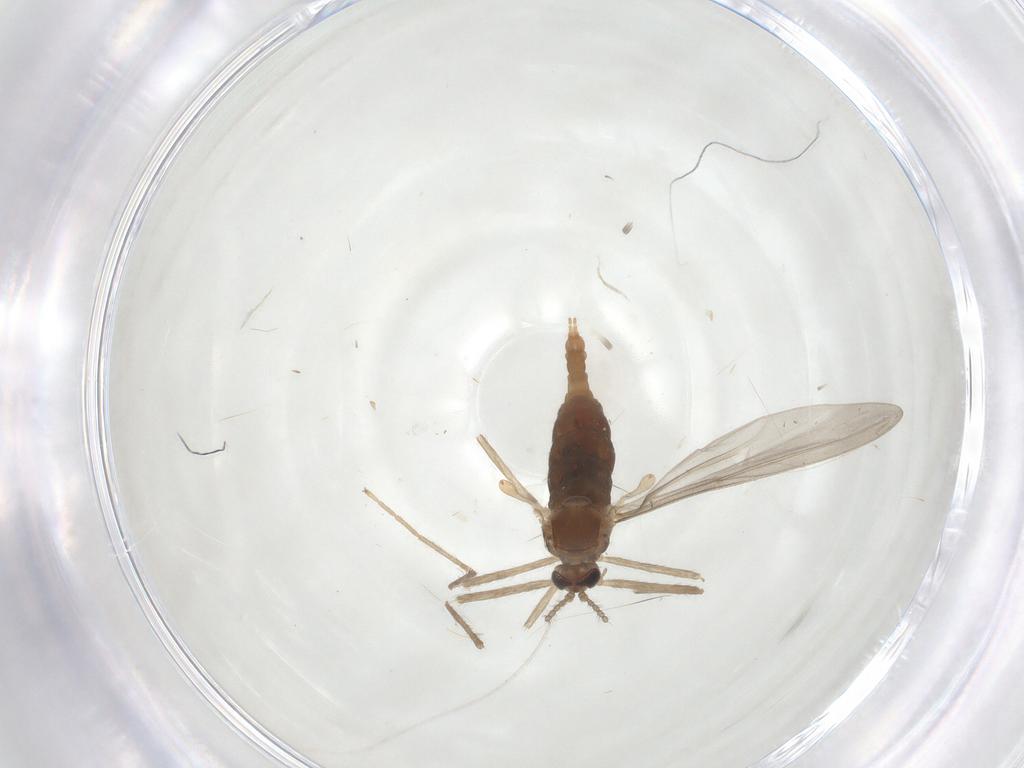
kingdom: Animalia
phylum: Arthropoda
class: Insecta
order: Diptera
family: Cecidomyiidae
